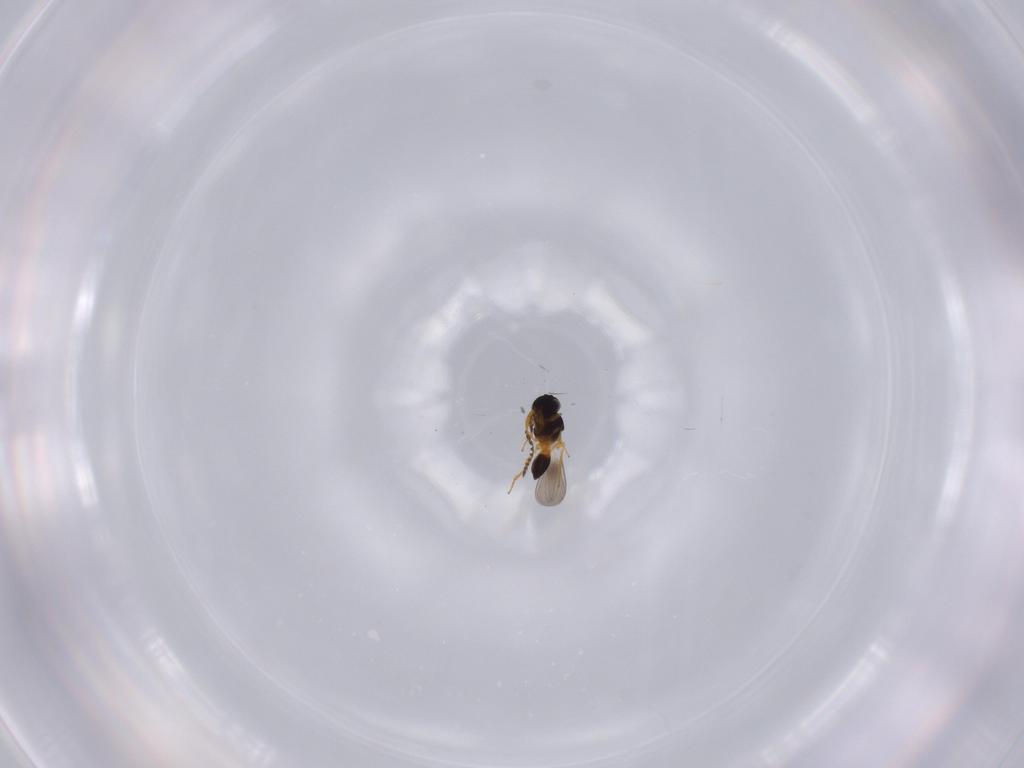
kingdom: Animalia
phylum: Arthropoda
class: Insecta
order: Hymenoptera
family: Platygastridae
